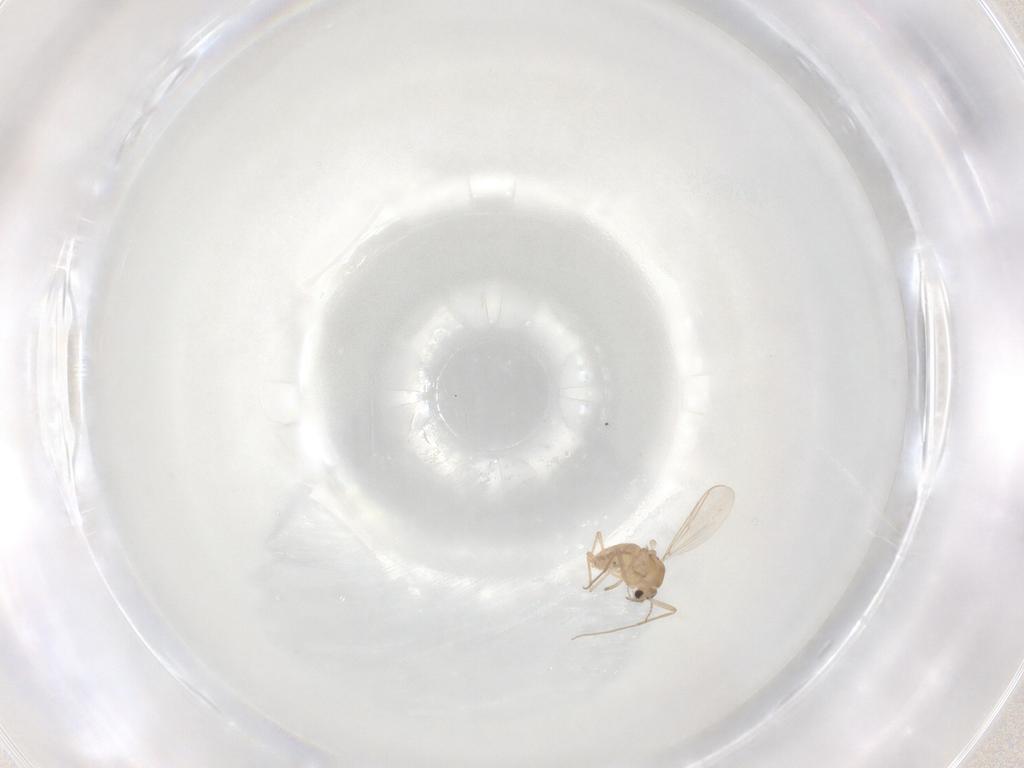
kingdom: Animalia
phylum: Arthropoda
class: Insecta
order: Diptera
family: Chironomidae
